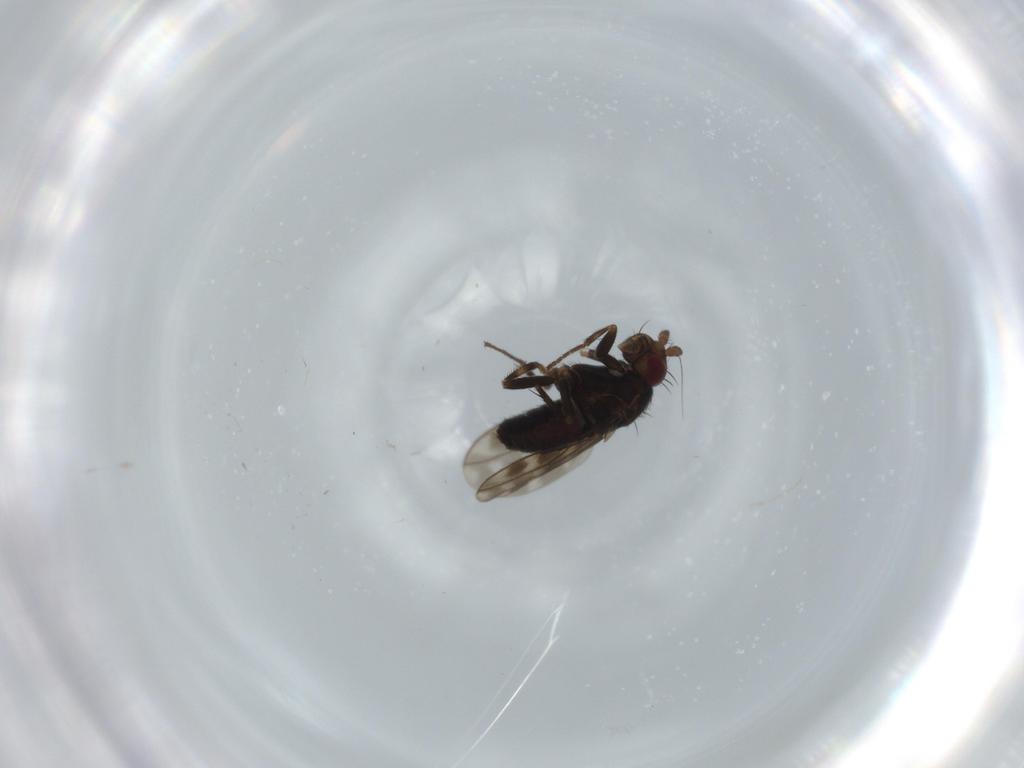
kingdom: Animalia
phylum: Arthropoda
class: Insecta
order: Diptera
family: Sphaeroceridae
